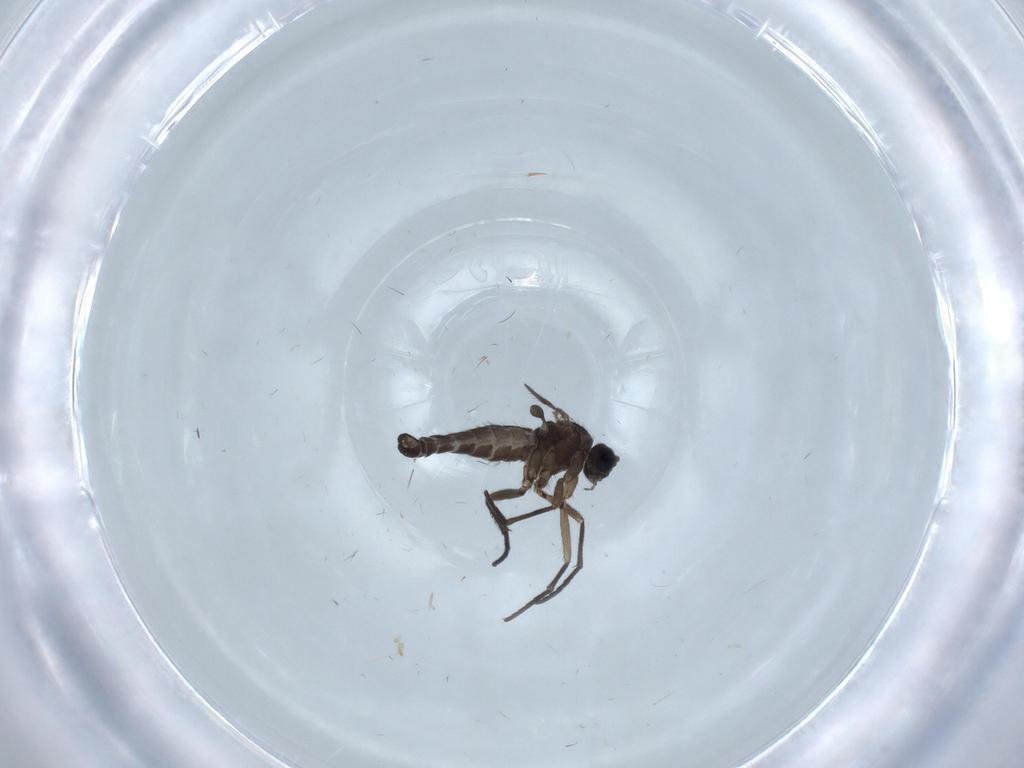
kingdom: Animalia
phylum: Arthropoda
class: Insecta
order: Diptera
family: Sciaridae
